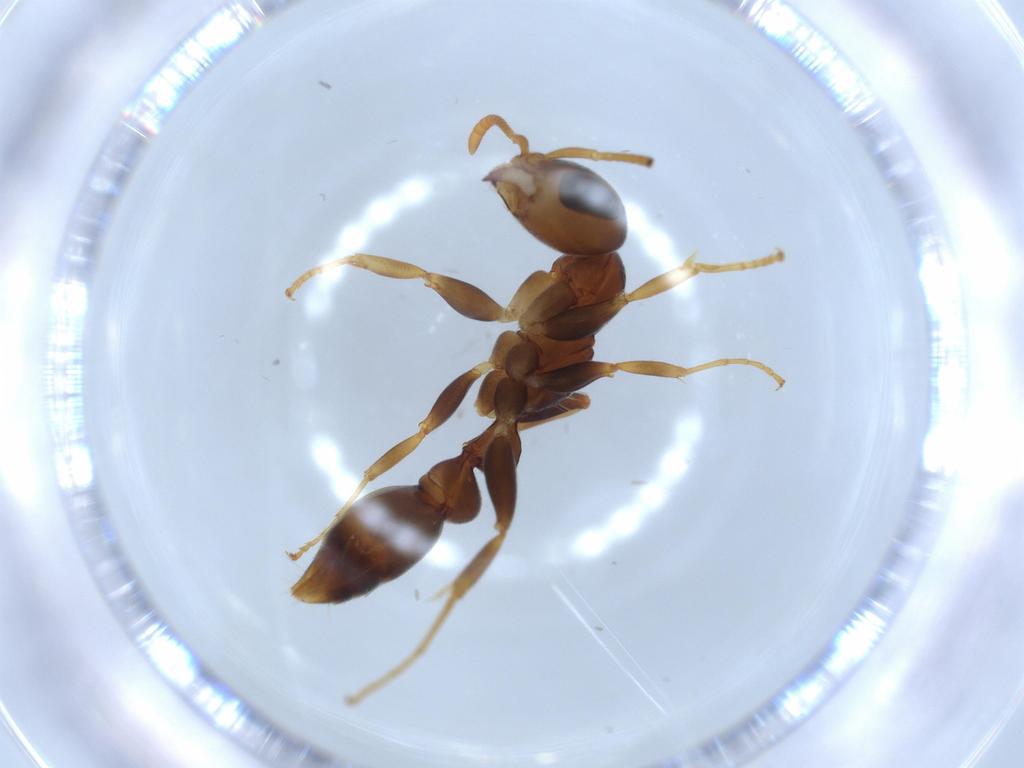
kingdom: Animalia
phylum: Arthropoda
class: Insecta
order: Hymenoptera
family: Formicidae
